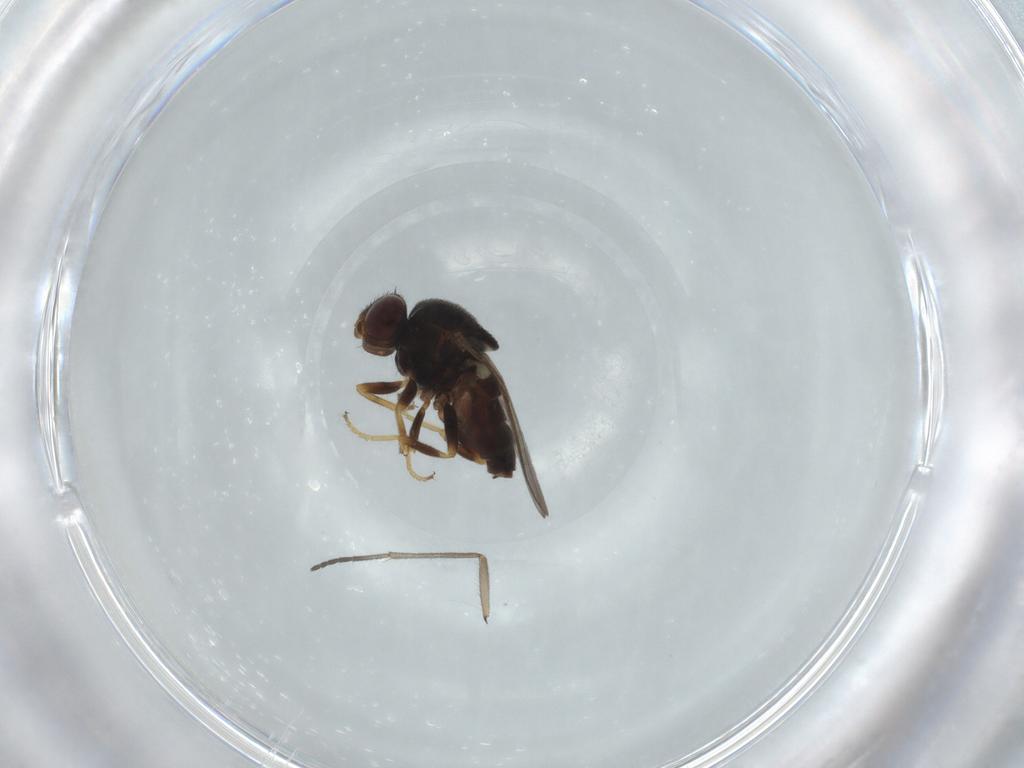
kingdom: Animalia
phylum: Arthropoda
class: Insecta
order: Diptera
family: Chloropidae
